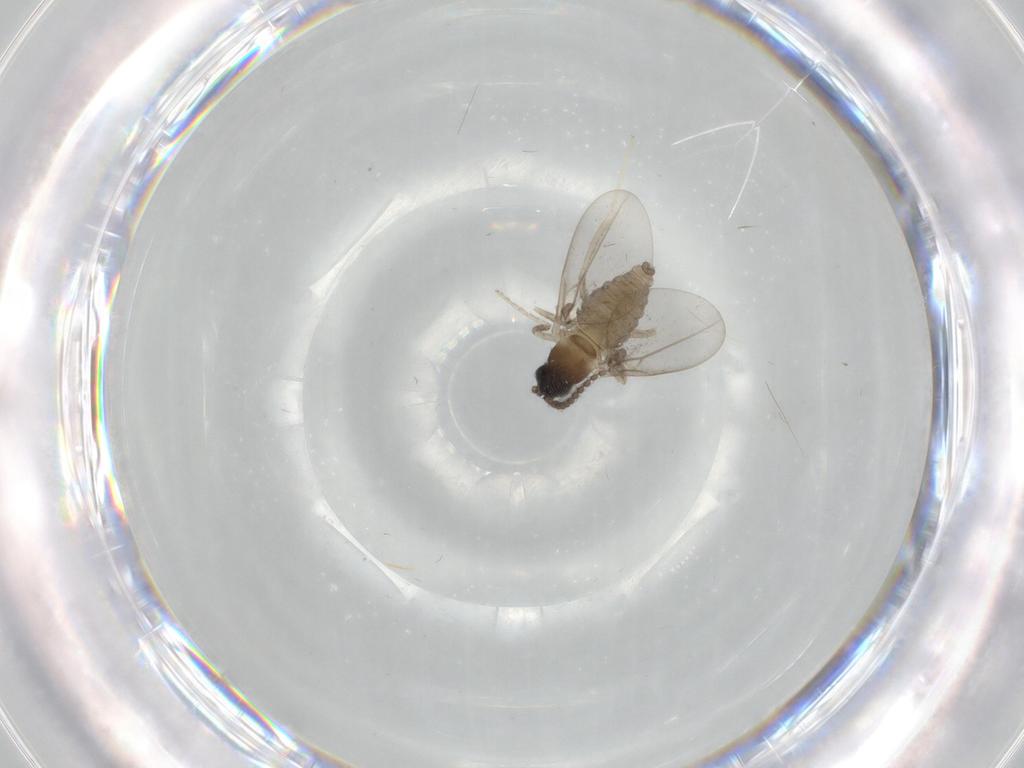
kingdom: Animalia
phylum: Arthropoda
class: Insecta
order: Diptera
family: Cecidomyiidae
